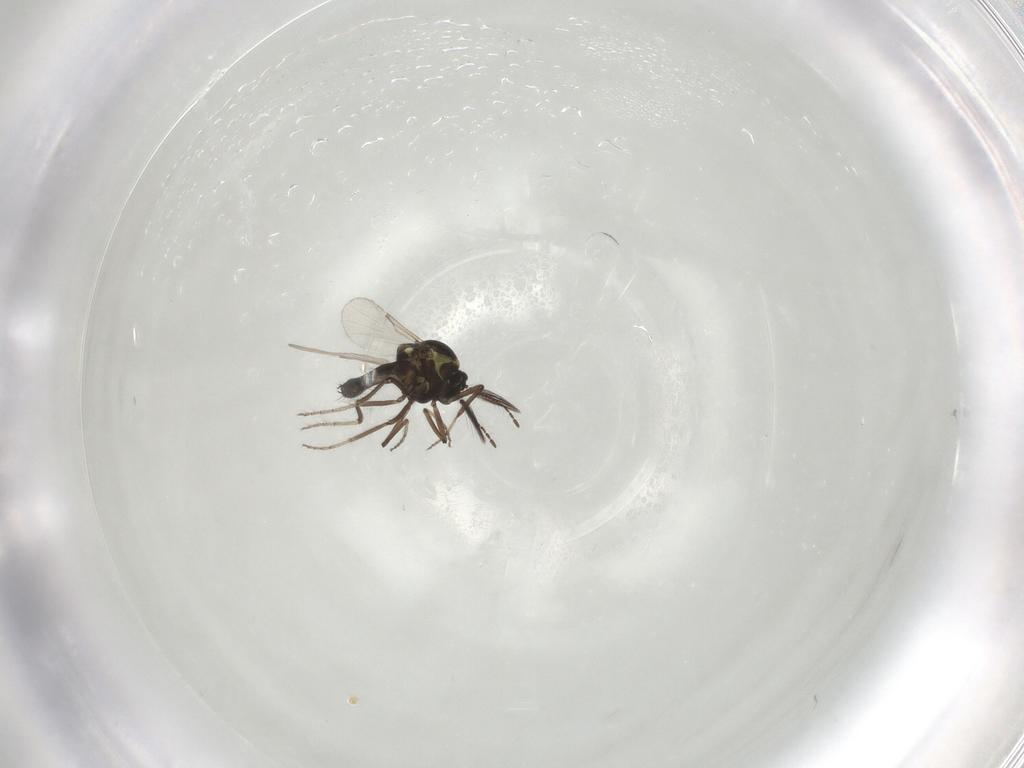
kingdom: Animalia
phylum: Arthropoda
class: Insecta
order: Diptera
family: Ceratopogonidae
